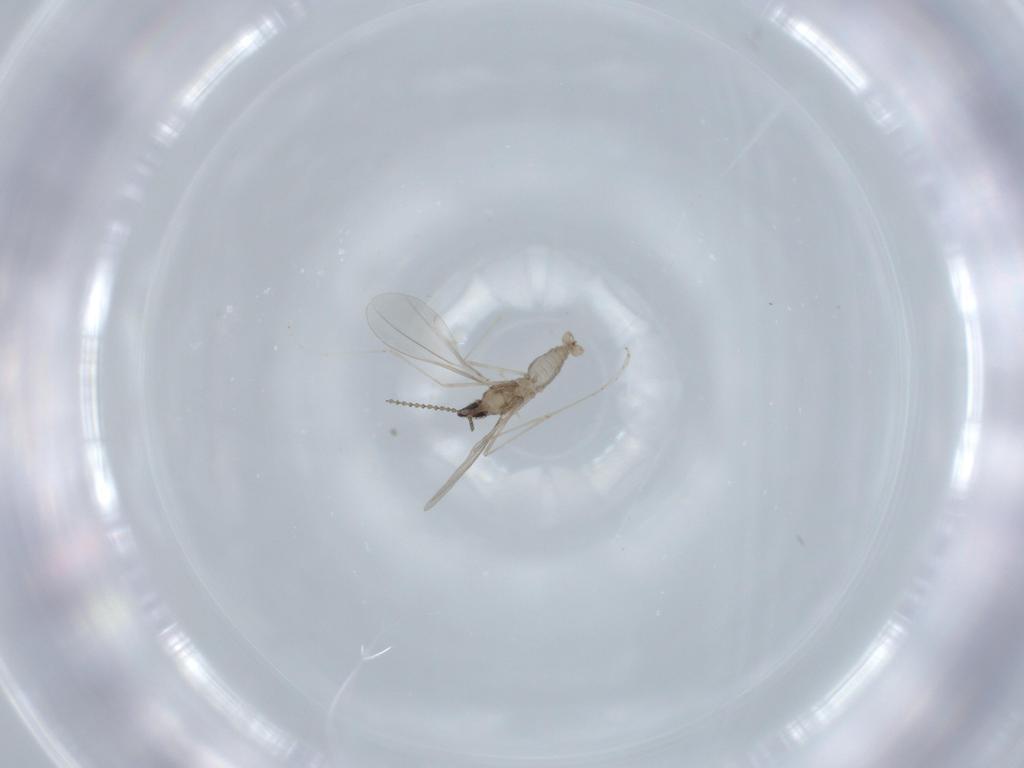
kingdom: Animalia
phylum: Arthropoda
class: Insecta
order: Diptera
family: Cecidomyiidae
